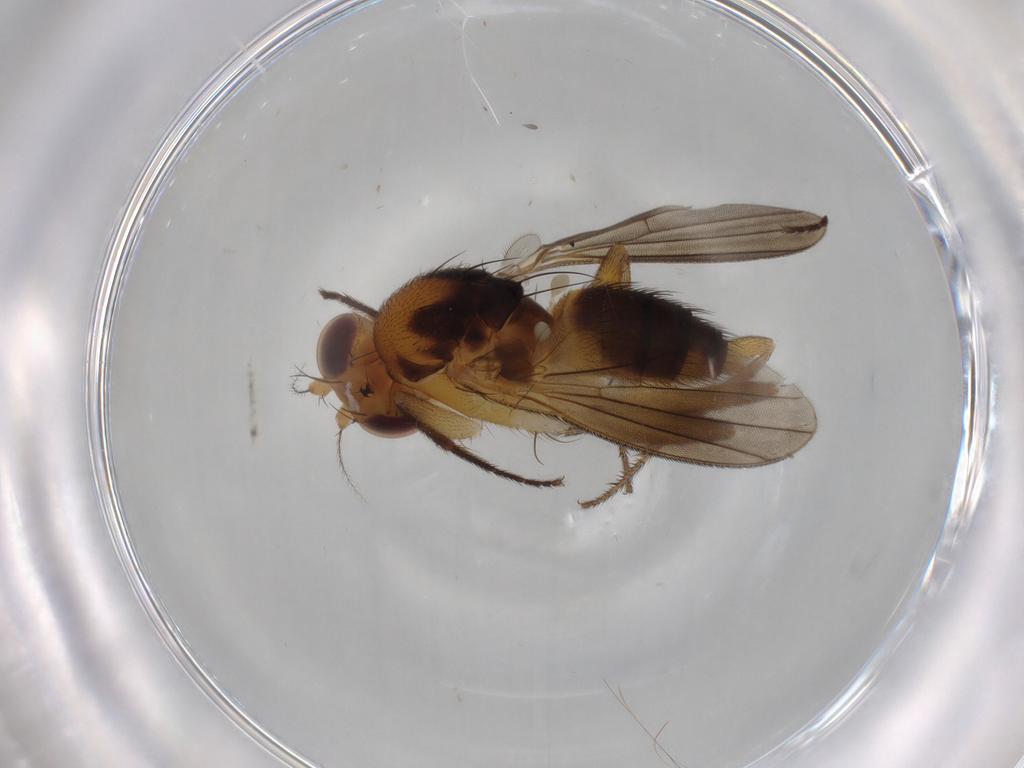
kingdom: Animalia
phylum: Arthropoda
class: Insecta
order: Diptera
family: Clusiidae
